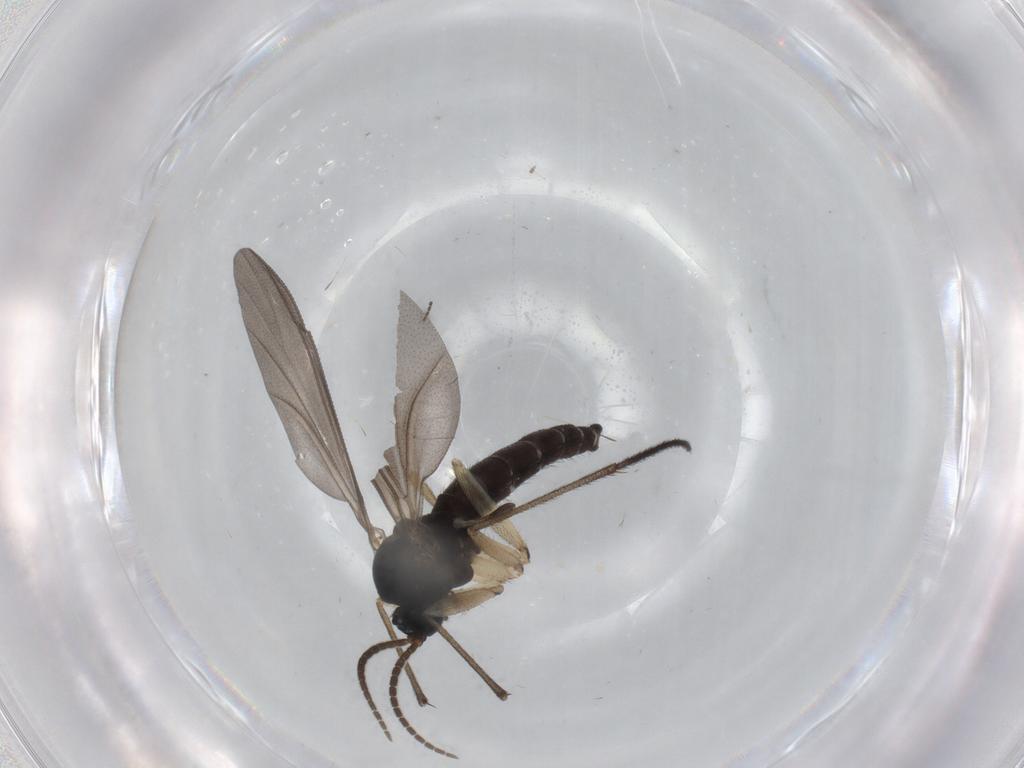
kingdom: Animalia
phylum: Arthropoda
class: Insecta
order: Diptera
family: Sciaridae
